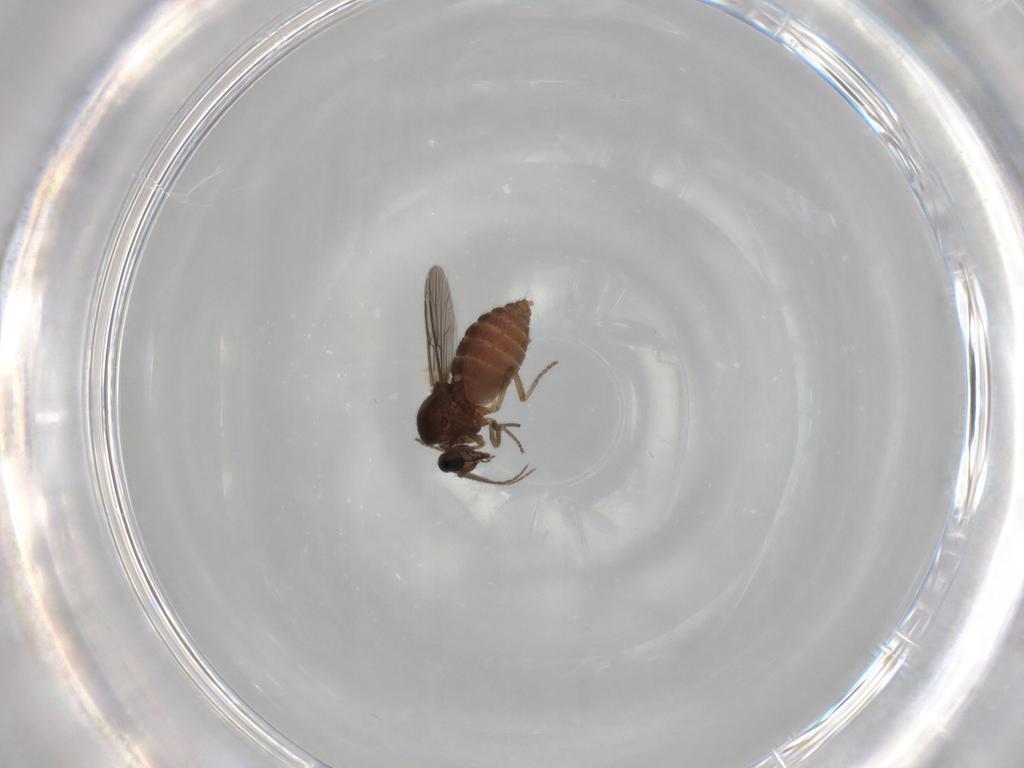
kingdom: Animalia
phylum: Arthropoda
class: Insecta
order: Diptera
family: Ceratopogonidae
